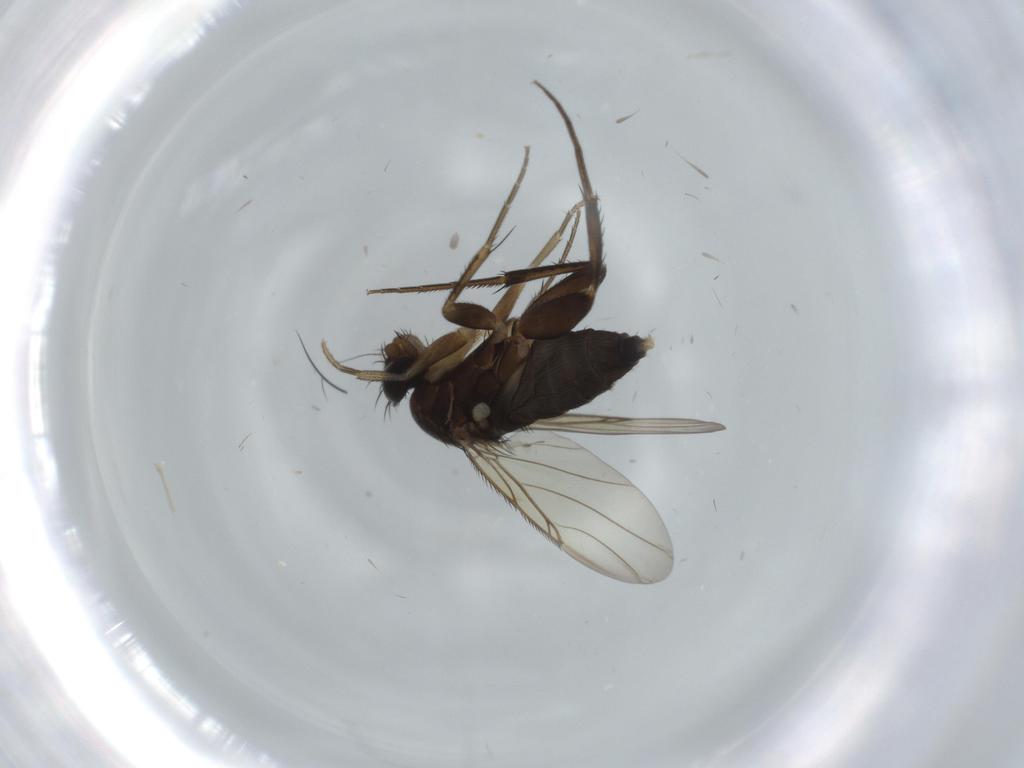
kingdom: Animalia
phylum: Arthropoda
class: Insecta
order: Diptera
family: Phoridae
